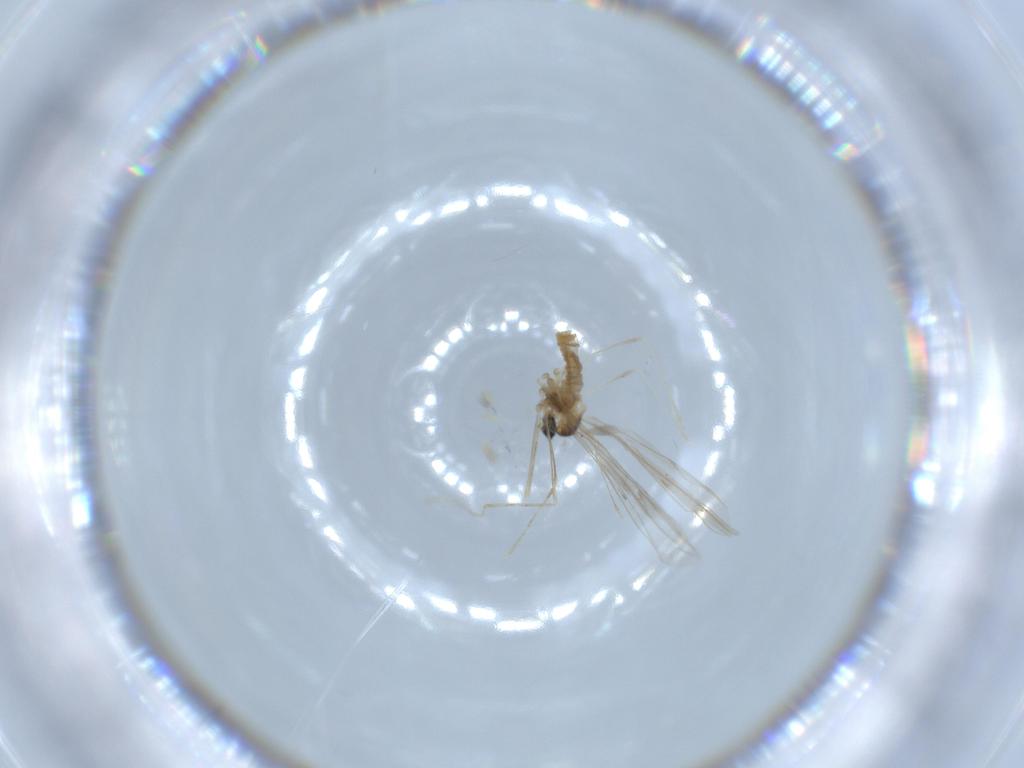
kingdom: Animalia
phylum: Arthropoda
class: Insecta
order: Diptera
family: Cecidomyiidae
